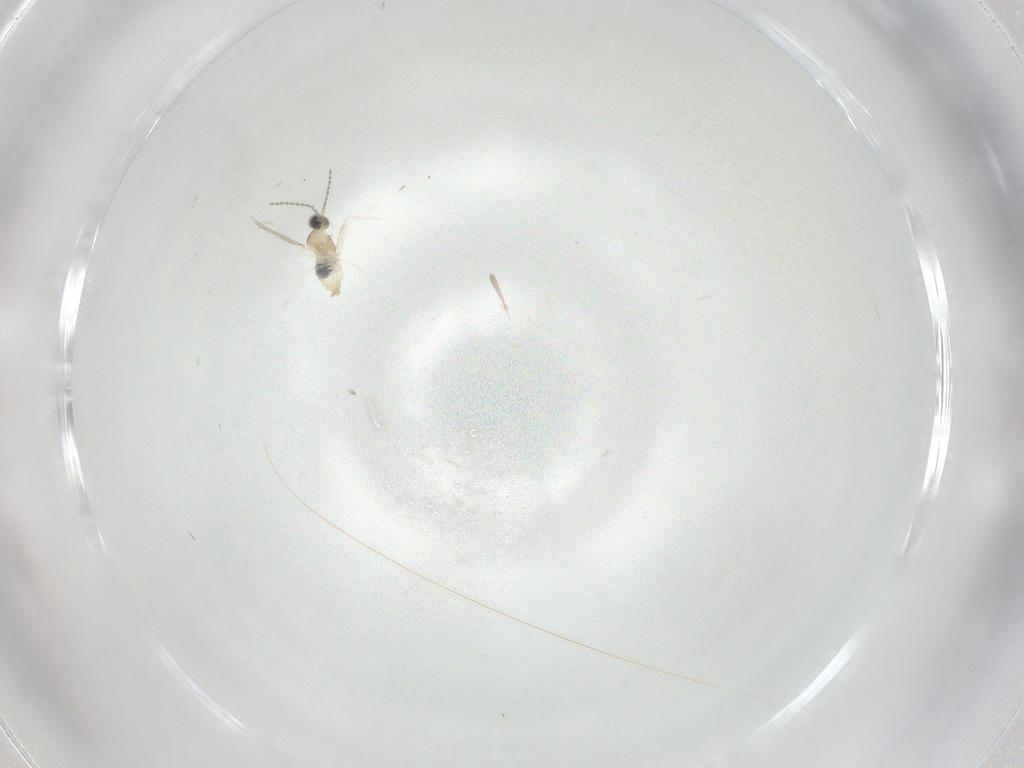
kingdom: Animalia
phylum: Arthropoda
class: Insecta
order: Diptera
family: Cecidomyiidae
